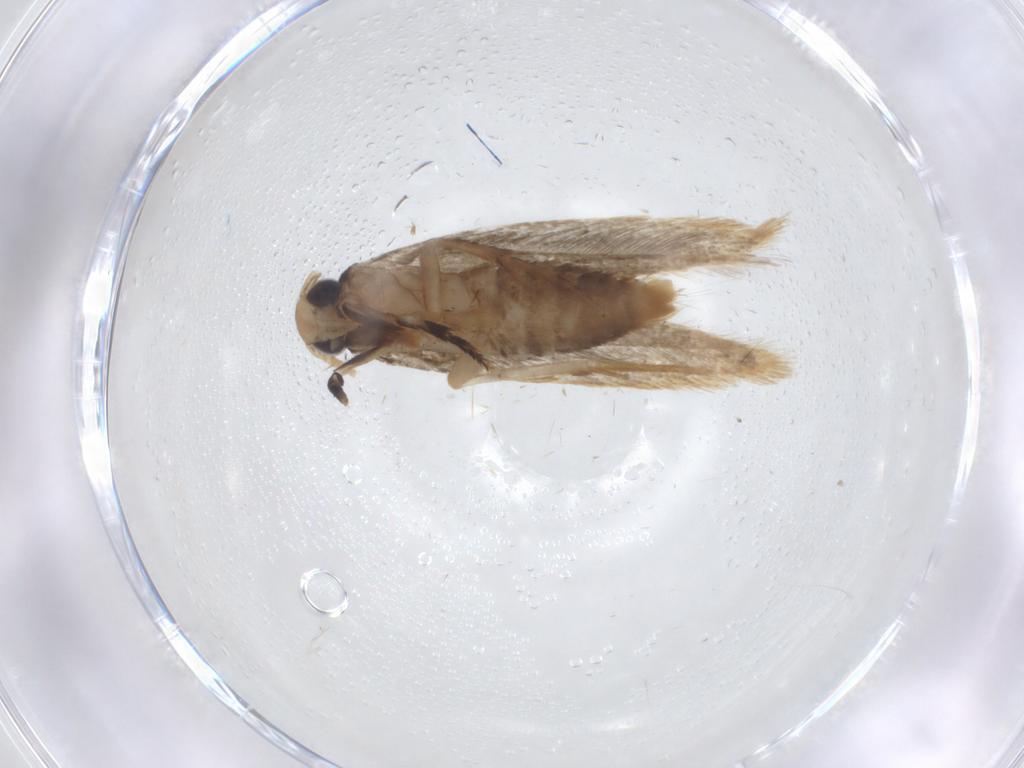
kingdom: Animalia
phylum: Arthropoda
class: Insecta
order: Lepidoptera
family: Tineidae
